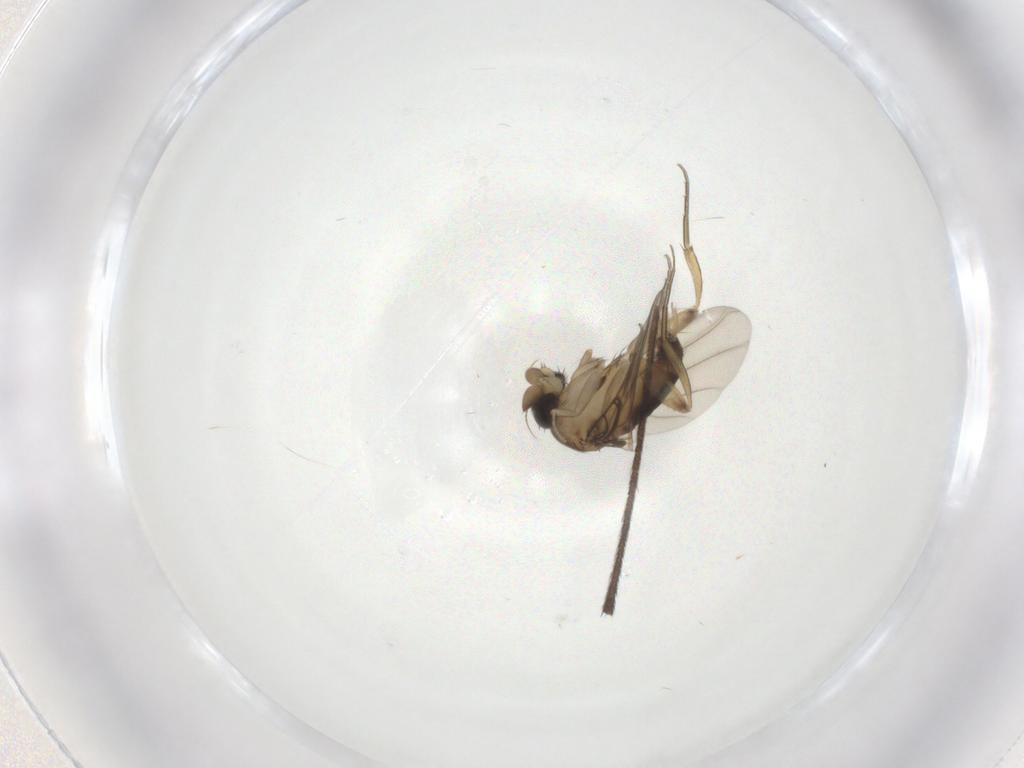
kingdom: Animalia
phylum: Arthropoda
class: Insecta
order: Diptera
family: Phoridae
